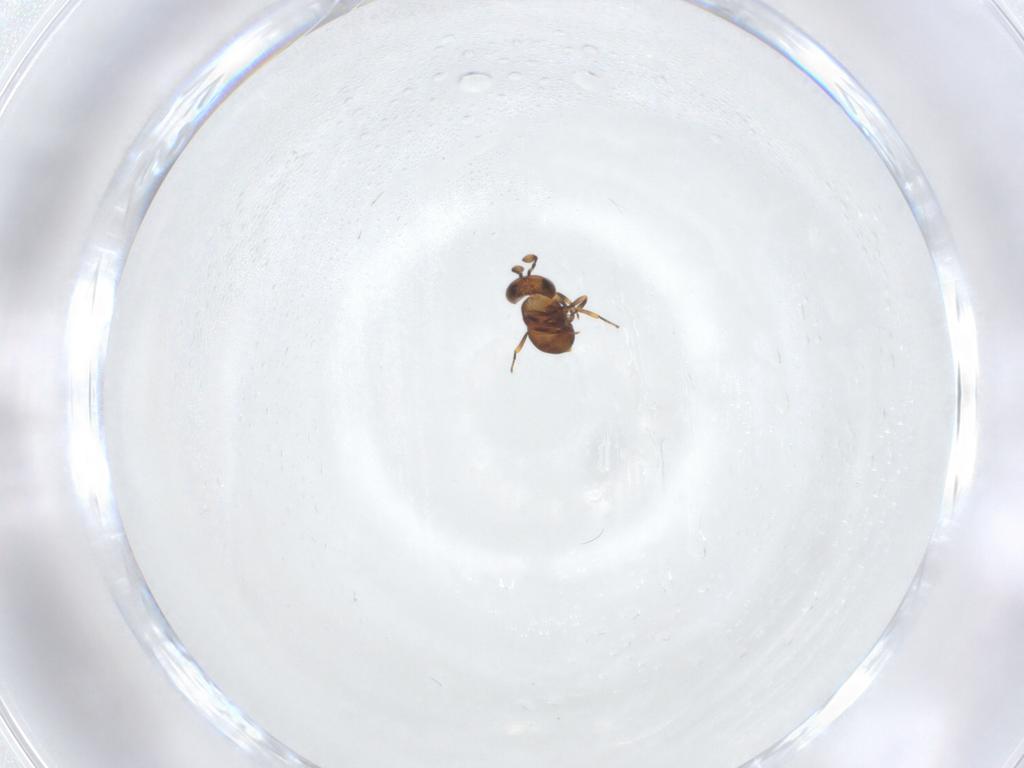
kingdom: Animalia
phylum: Arthropoda
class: Insecta
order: Hymenoptera
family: Scelionidae
